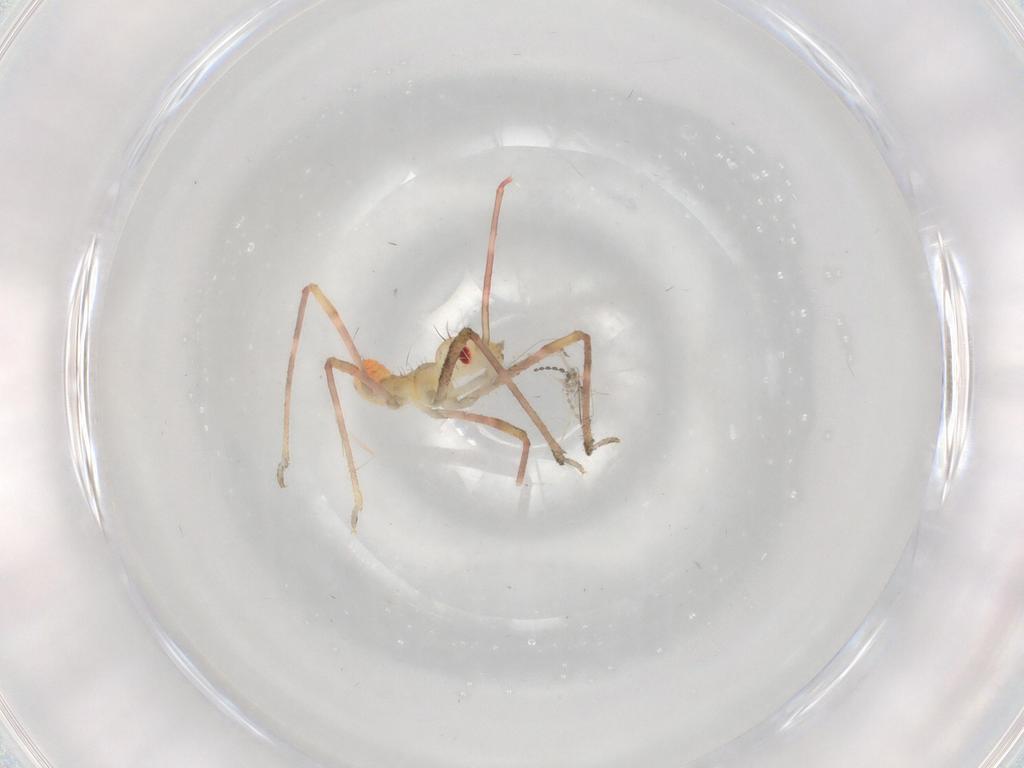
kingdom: Animalia
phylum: Arthropoda
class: Insecta
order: Hemiptera
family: Reduviidae
